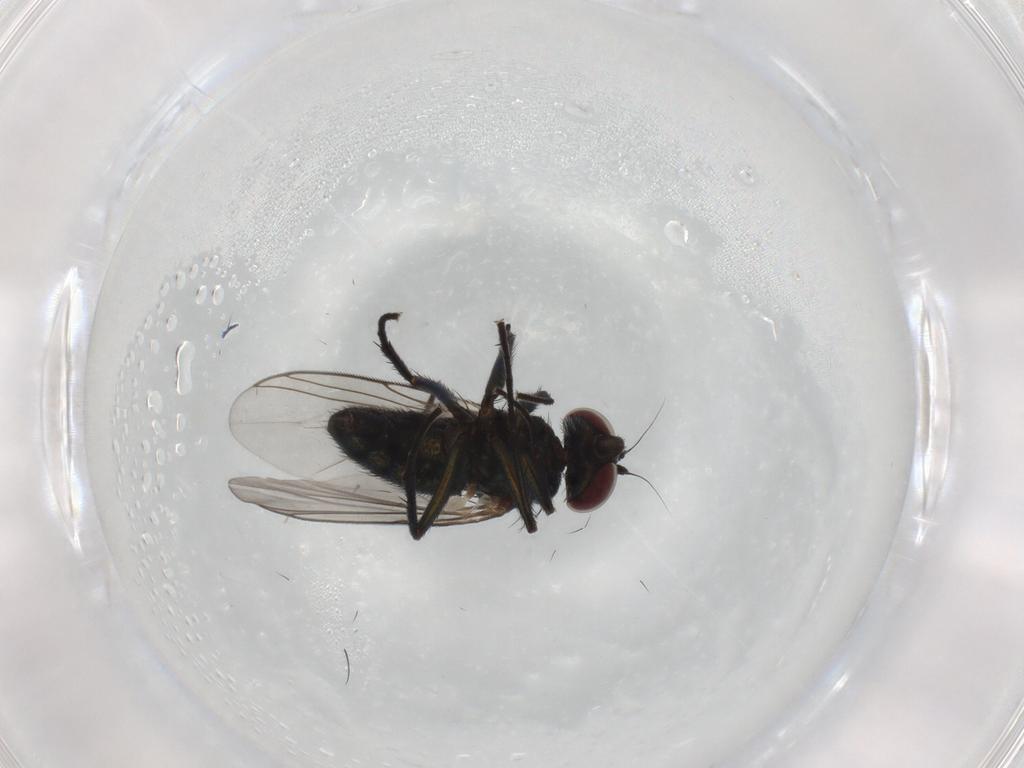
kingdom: Animalia
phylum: Arthropoda
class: Insecta
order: Diptera
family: Dolichopodidae
